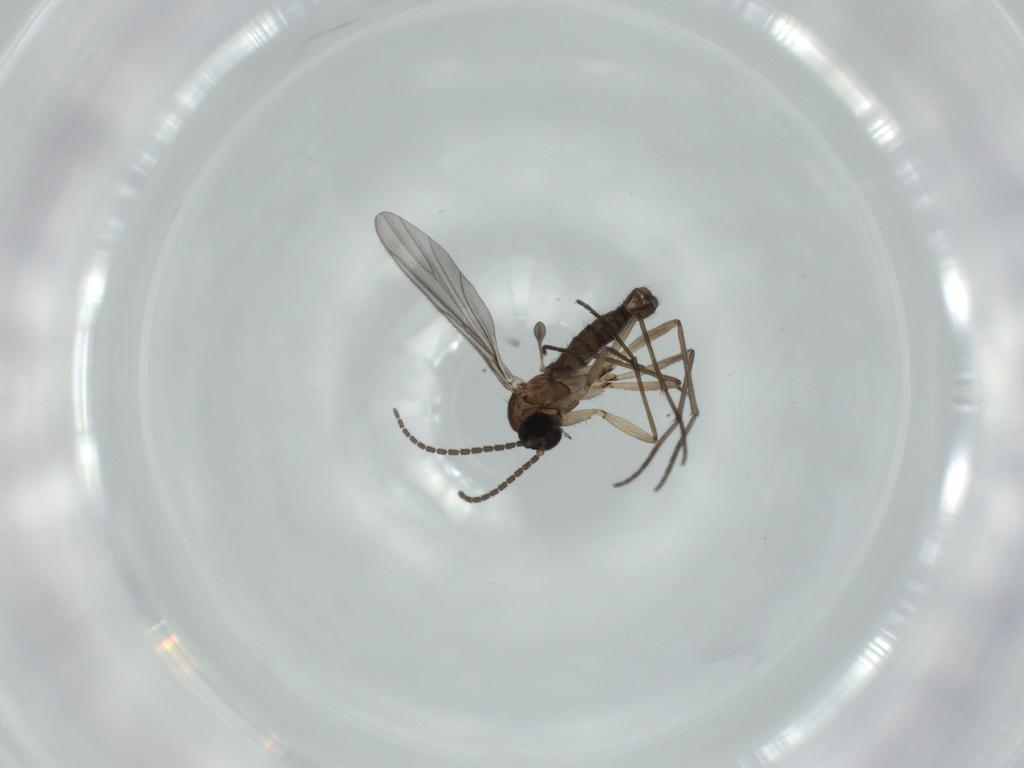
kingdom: Animalia
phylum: Arthropoda
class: Insecta
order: Diptera
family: Sciaridae
